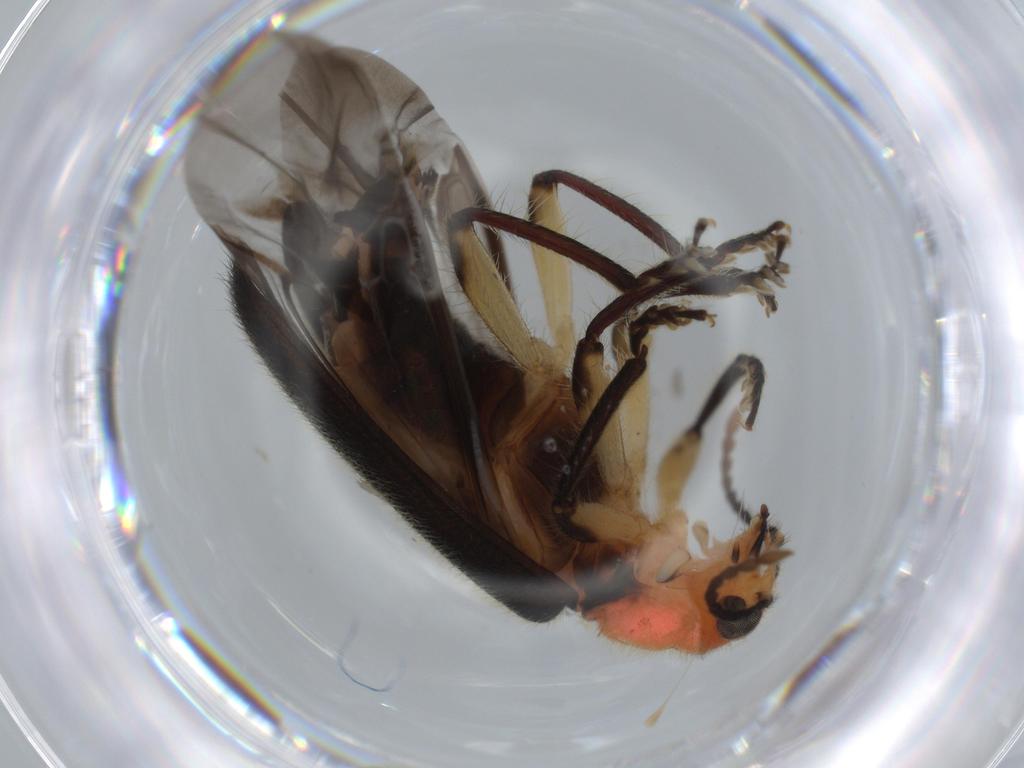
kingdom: Animalia
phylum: Arthropoda
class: Insecta
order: Coleoptera
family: Cleridae
